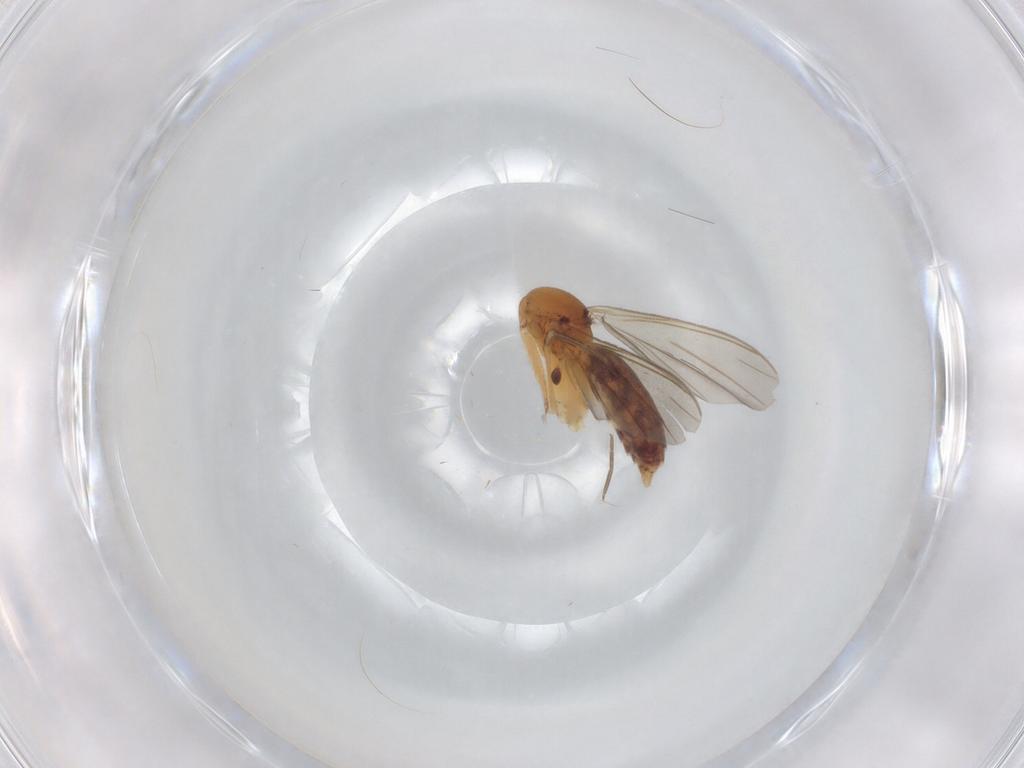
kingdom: Animalia
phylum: Arthropoda
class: Insecta
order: Diptera
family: Mycetophilidae
